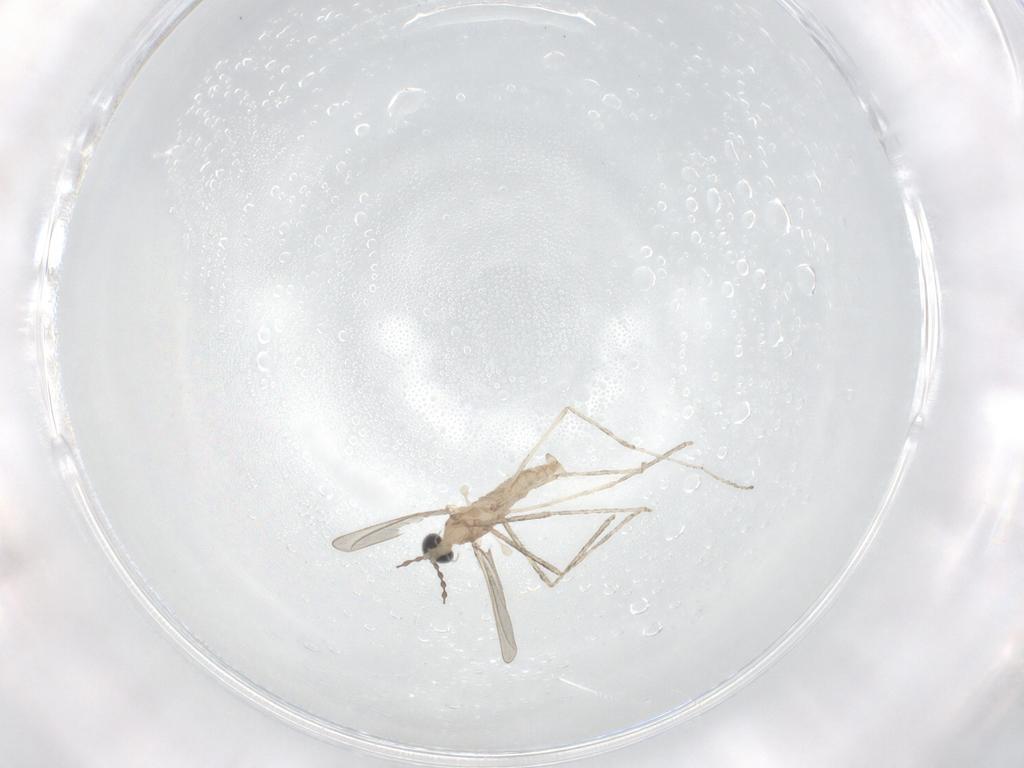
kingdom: Animalia
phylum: Arthropoda
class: Insecta
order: Diptera
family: Cecidomyiidae
